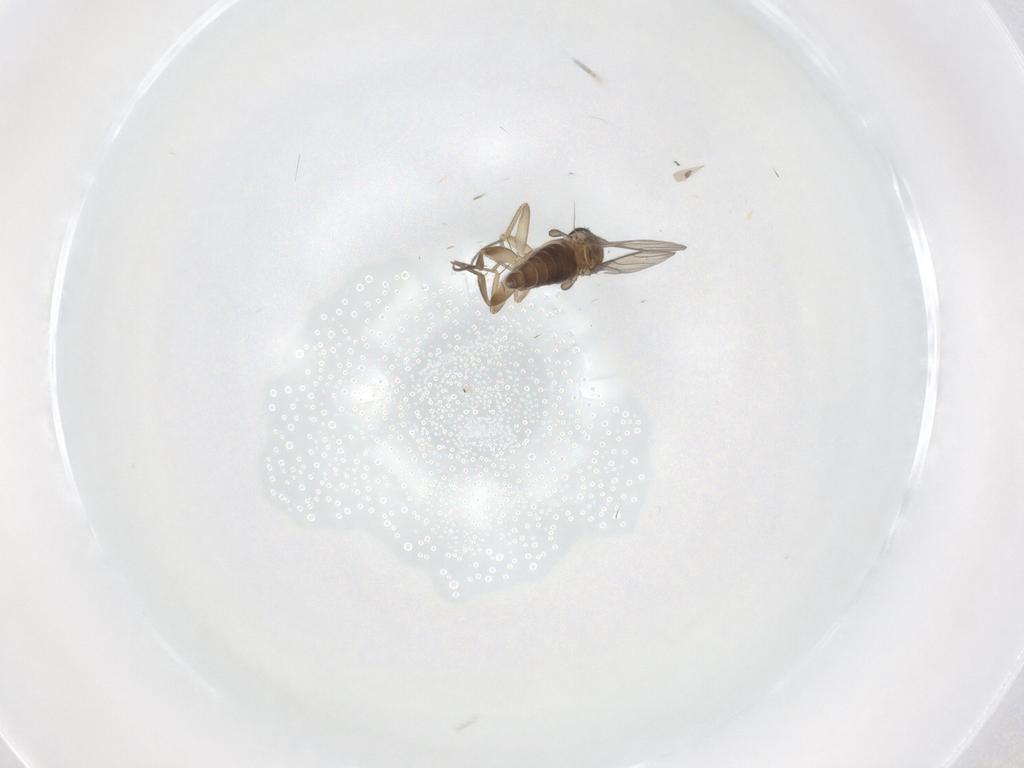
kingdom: Animalia
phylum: Arthropoda
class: Insecta
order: Diptera
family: Phoridae
